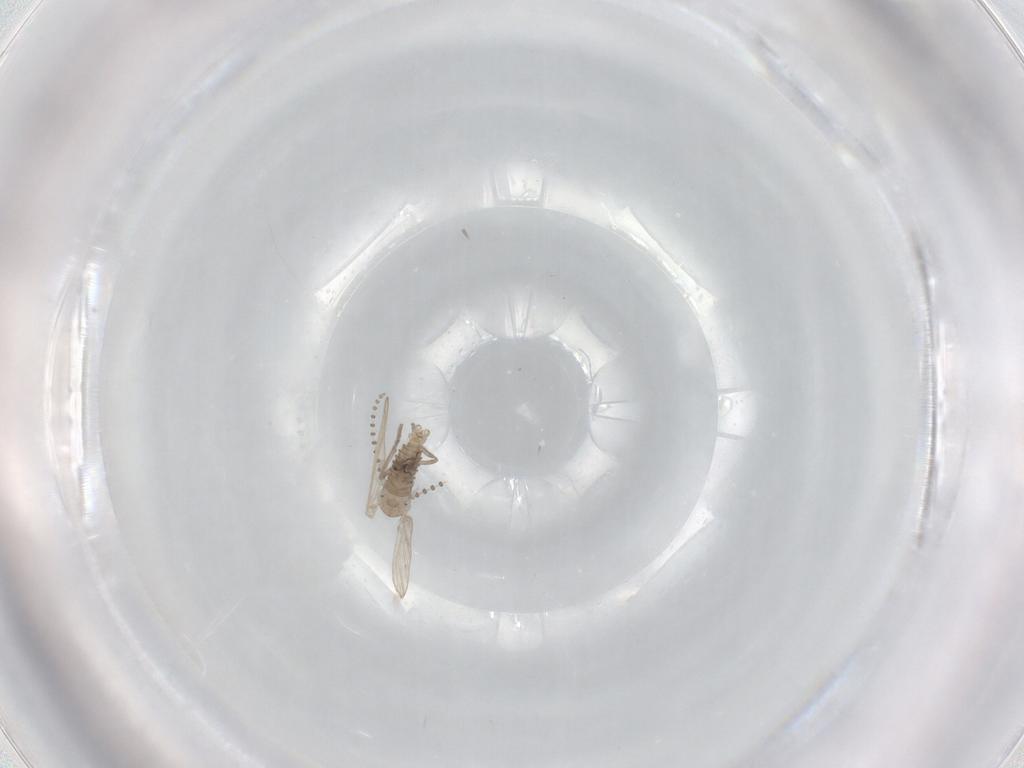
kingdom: Animalia
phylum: Arthropoda
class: Insecta
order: Diptera
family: Psychodidae
